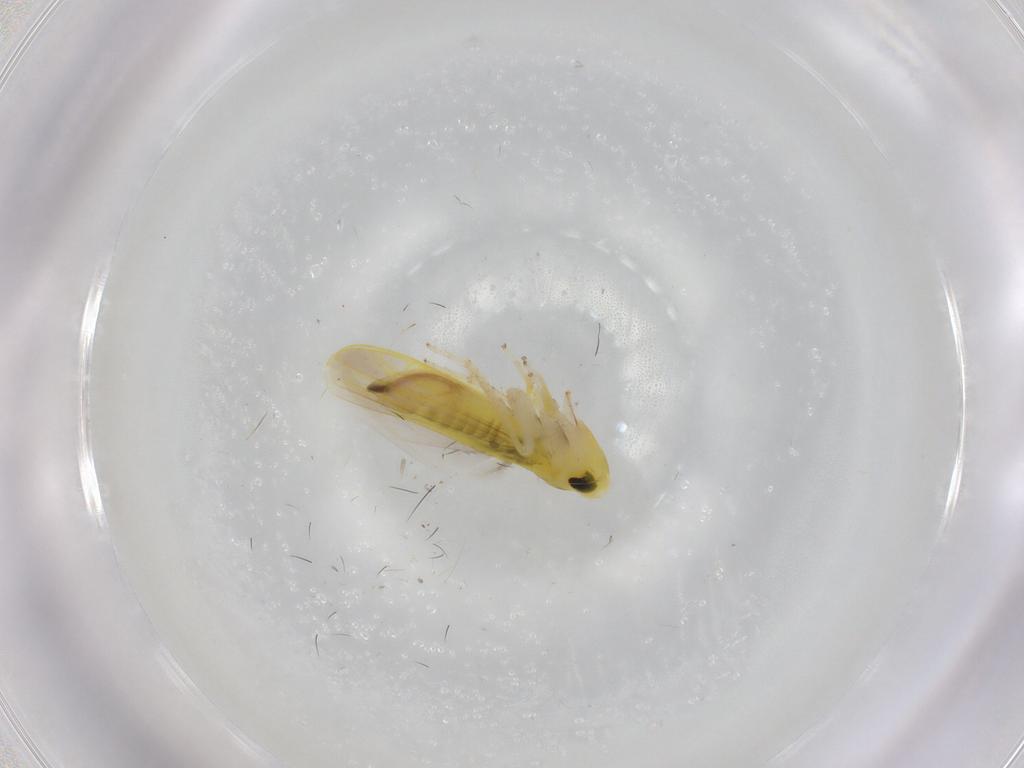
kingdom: Animalia
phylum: Arthropoda
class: Insecta
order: Hemiptera
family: Cicadellidae
